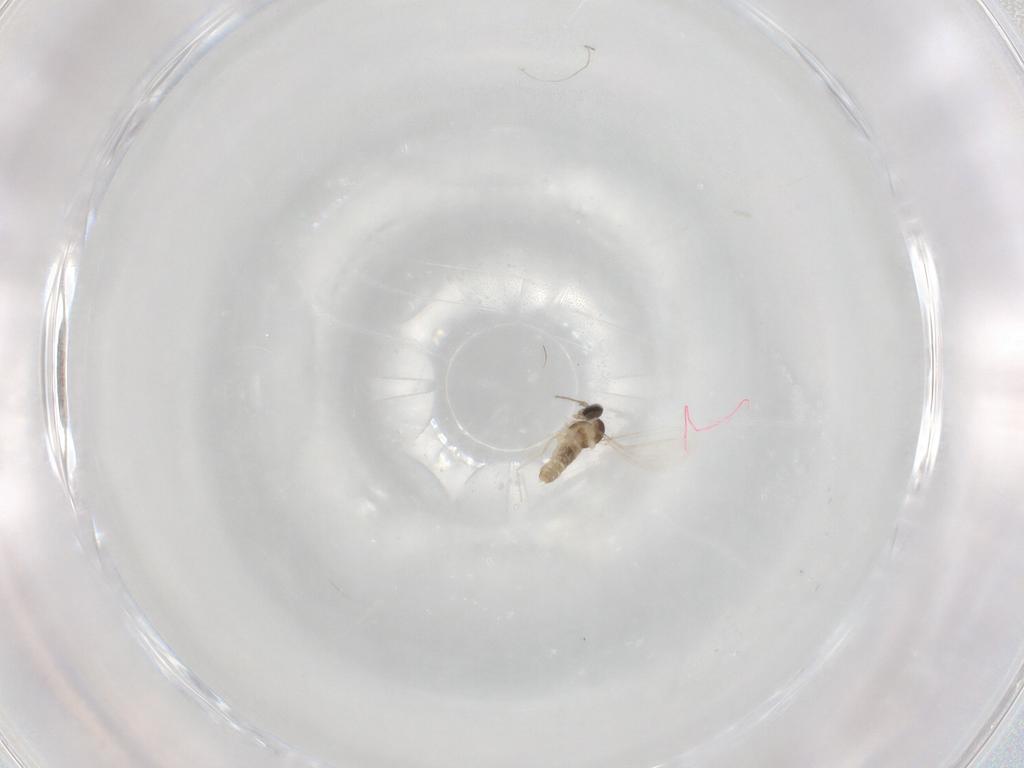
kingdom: Animalia
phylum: Arthropoda
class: Insecta
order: Diptera
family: Cecidomyiidae
